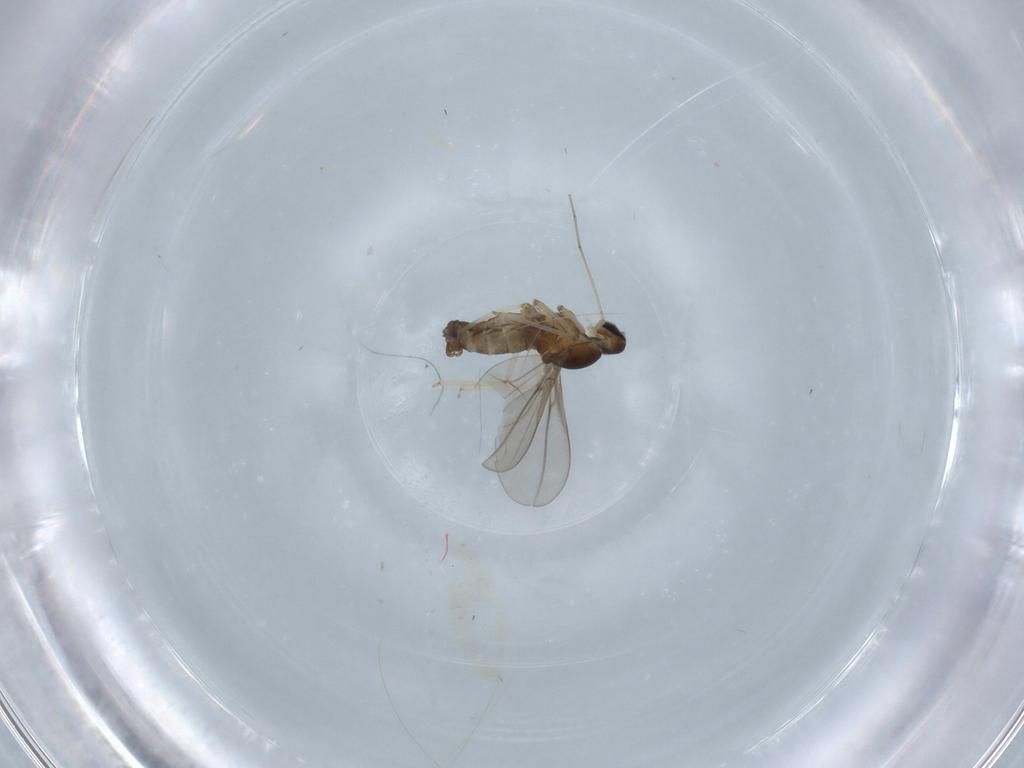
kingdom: Animalia
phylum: Arthropoda
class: Insecta
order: Diptera
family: Cecidomyiidae
